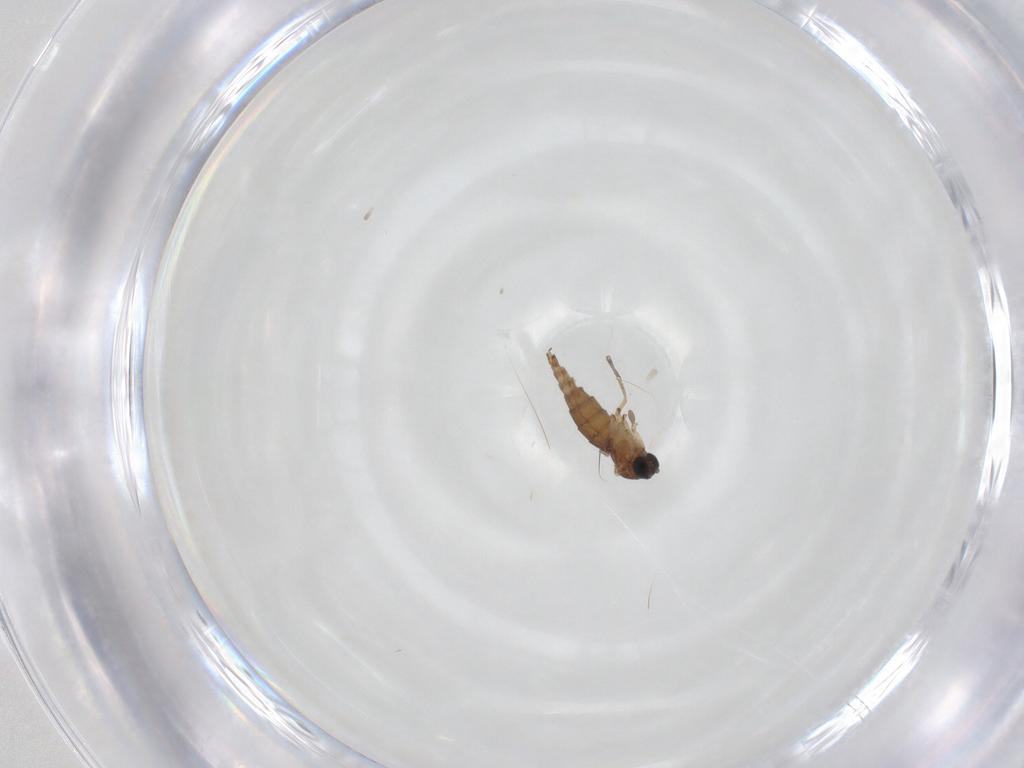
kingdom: Animalia
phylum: Arthropoda
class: Insecta
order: Diptera
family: Sciaridae
